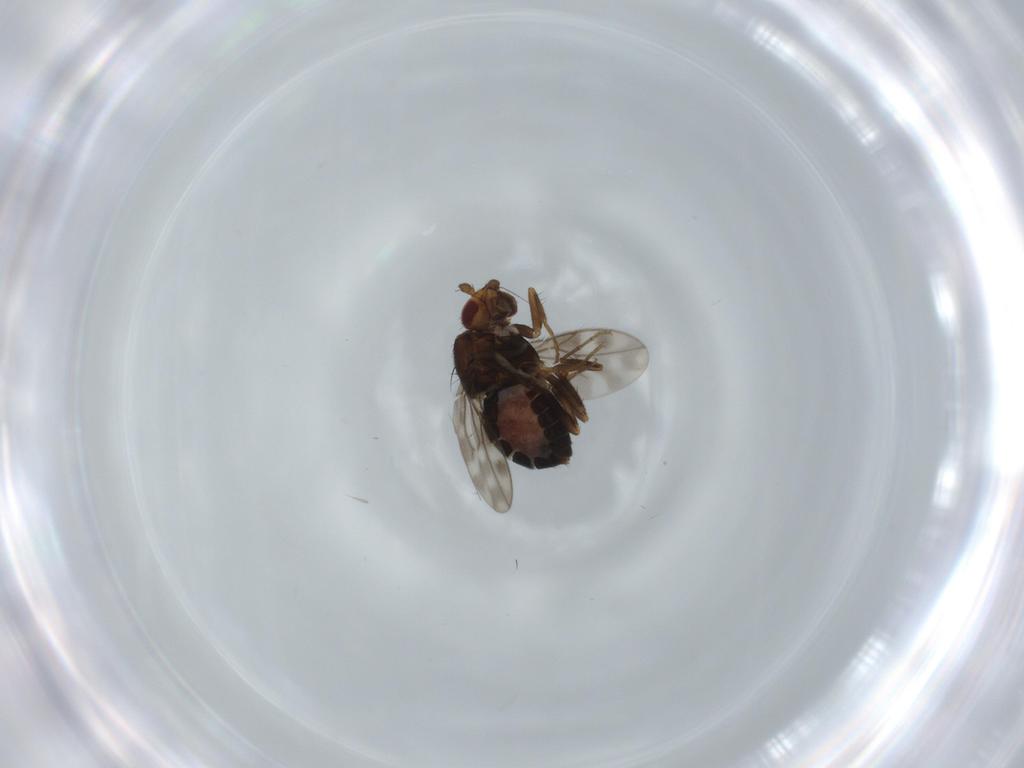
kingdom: Animalia
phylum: Arthropoda
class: Insecta
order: Diptera
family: Sphaeroceridae
